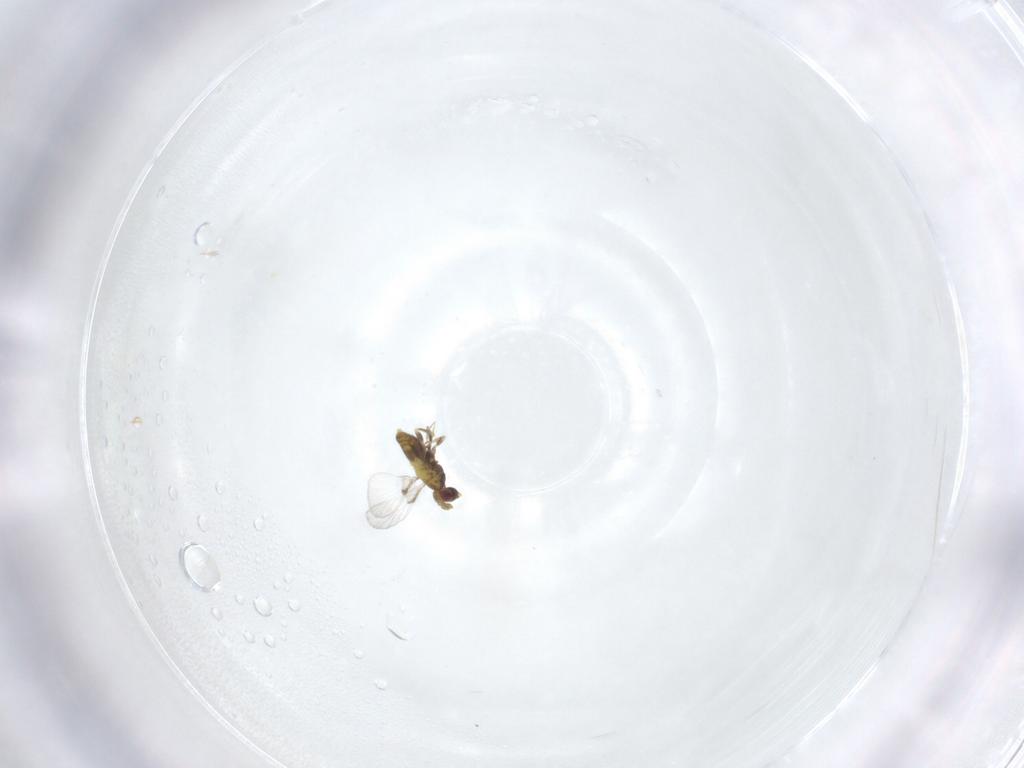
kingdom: Animalia
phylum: Arthropoda
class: Insecta
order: Hymenoptera
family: Trichogrammatidae
